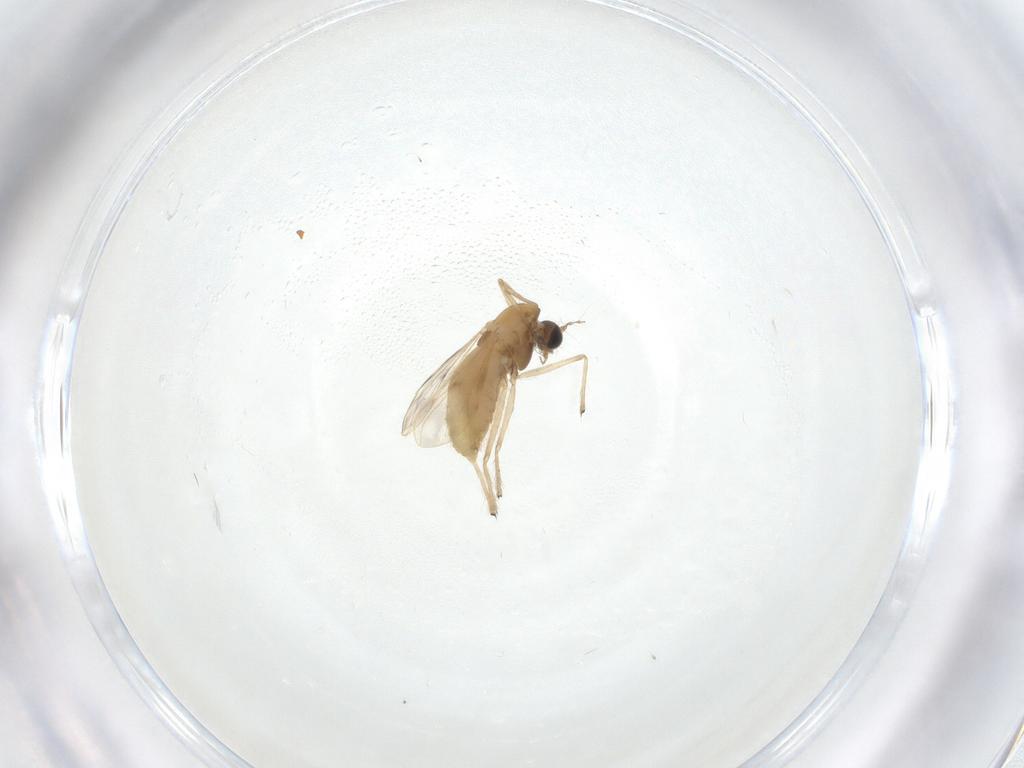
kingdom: Animalia
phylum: Arthropoda
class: Insecta
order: Diptera
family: Chironomidae
